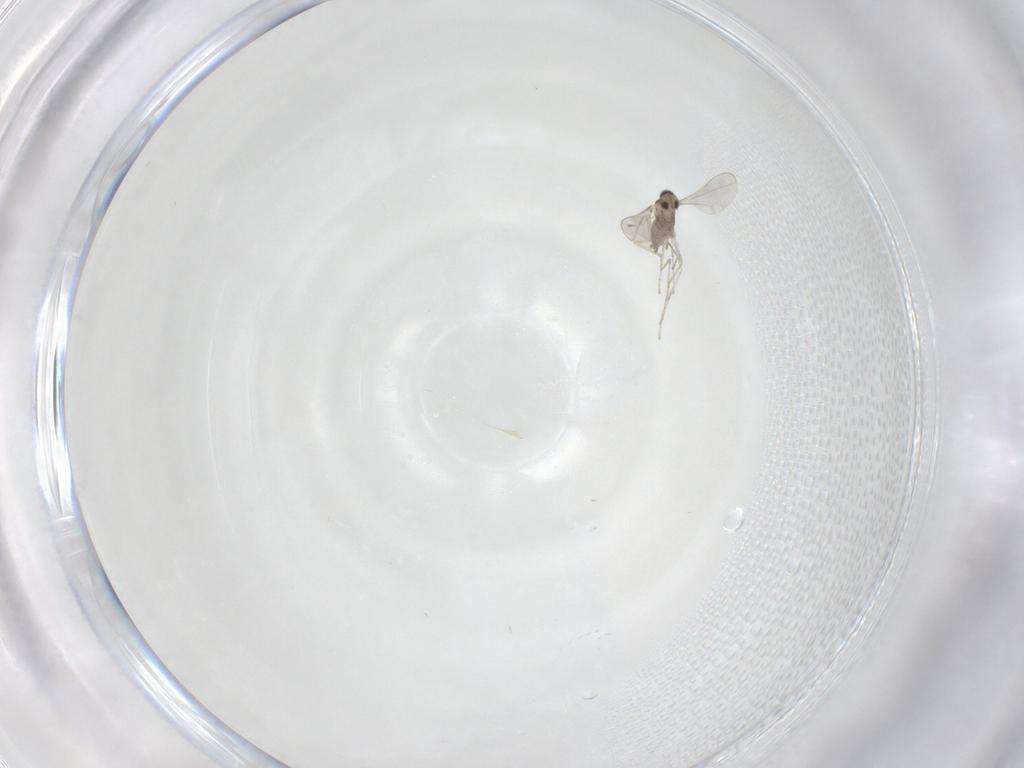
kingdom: Animalia
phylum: Arthropoda
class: Insecta
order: Diptera
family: Cecidomyiidae
